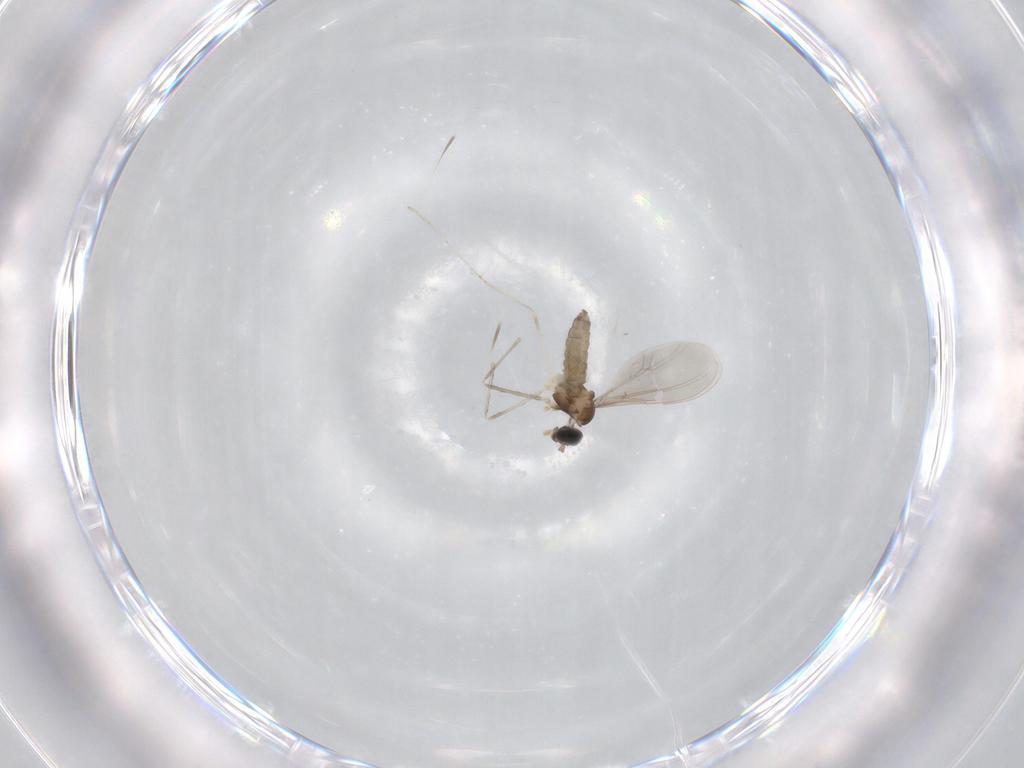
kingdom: Animalia
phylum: Arthropoda
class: Insecta
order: Diptera
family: Cecidomyiidae
